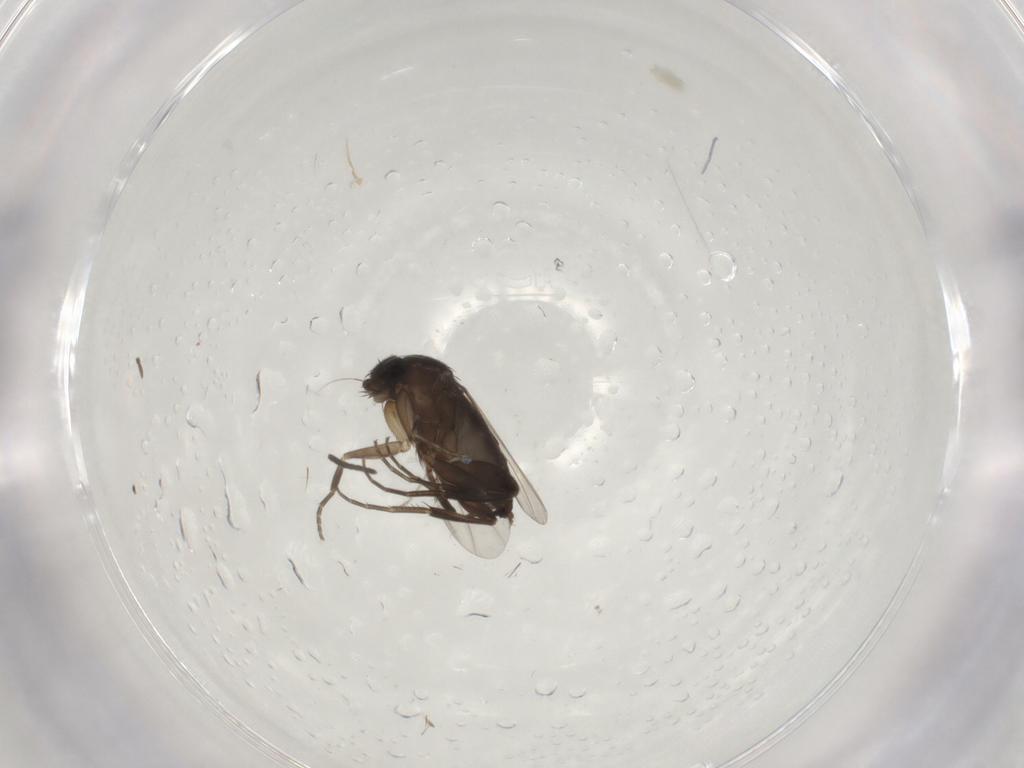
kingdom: Animalia
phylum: Arthropoda
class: Insecta
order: Diptera
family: Phoridae
